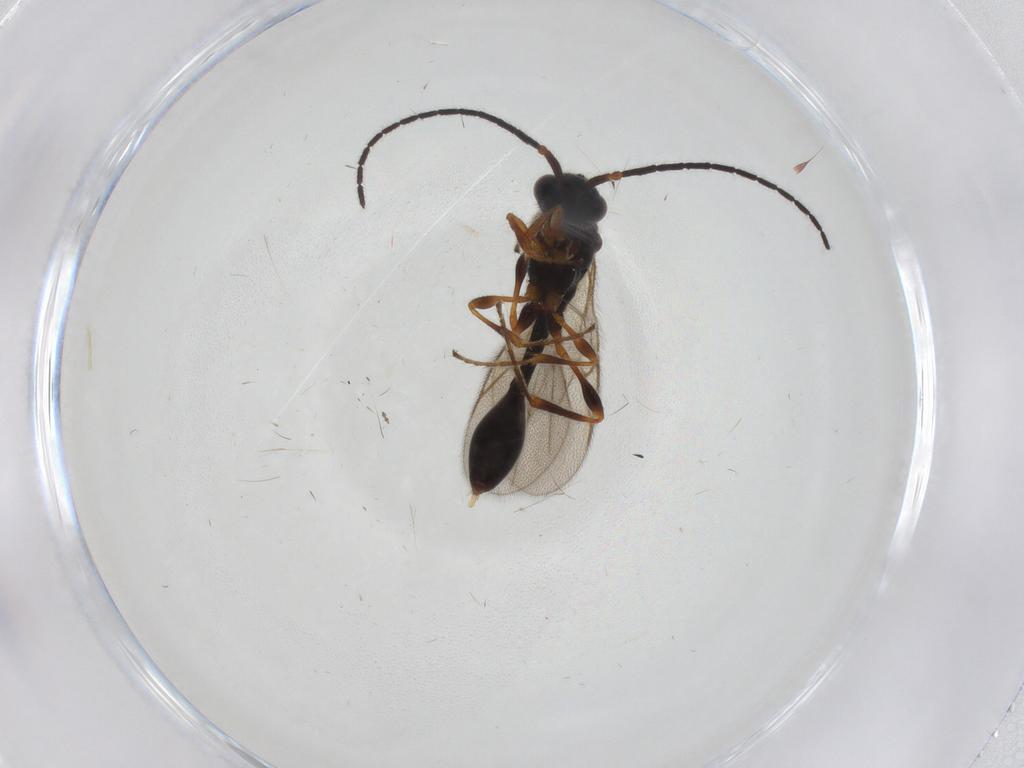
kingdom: Animalia
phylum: Arthropoda
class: Insecta
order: Hymenoptera
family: Diapriidae
